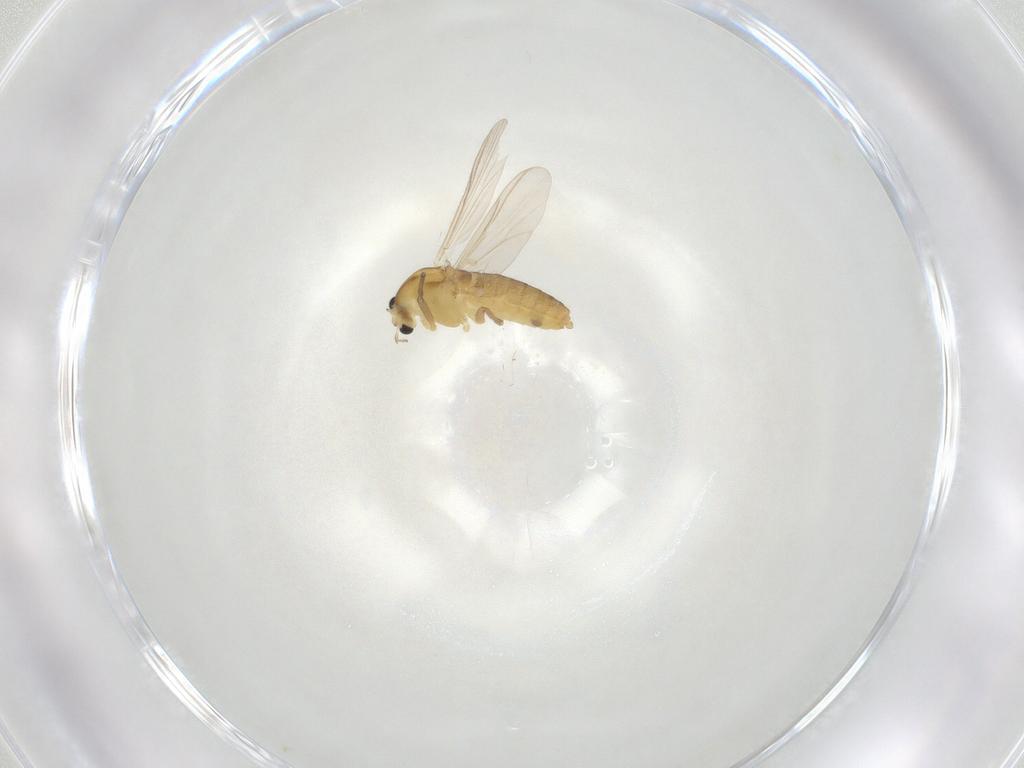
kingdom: Animalia
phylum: Arthropoda
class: Insecta
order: Diptera
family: Chironomidae
